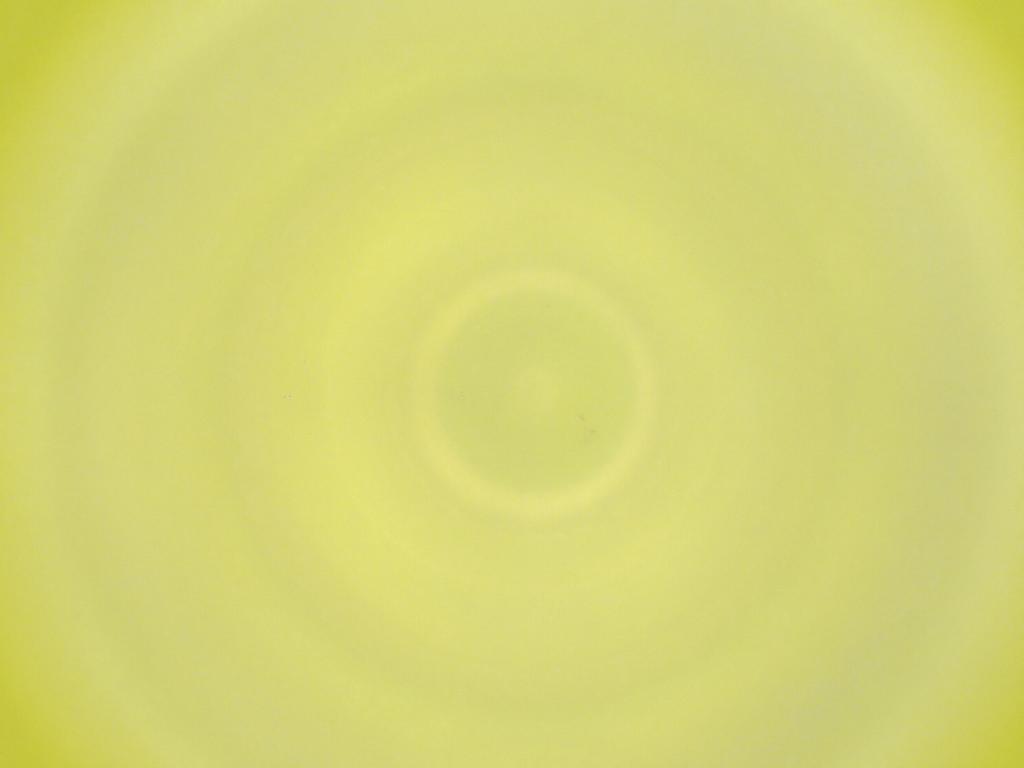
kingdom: Animalia
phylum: Arthropoda
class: Insecta
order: Diptera
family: Cecidomyiidae
